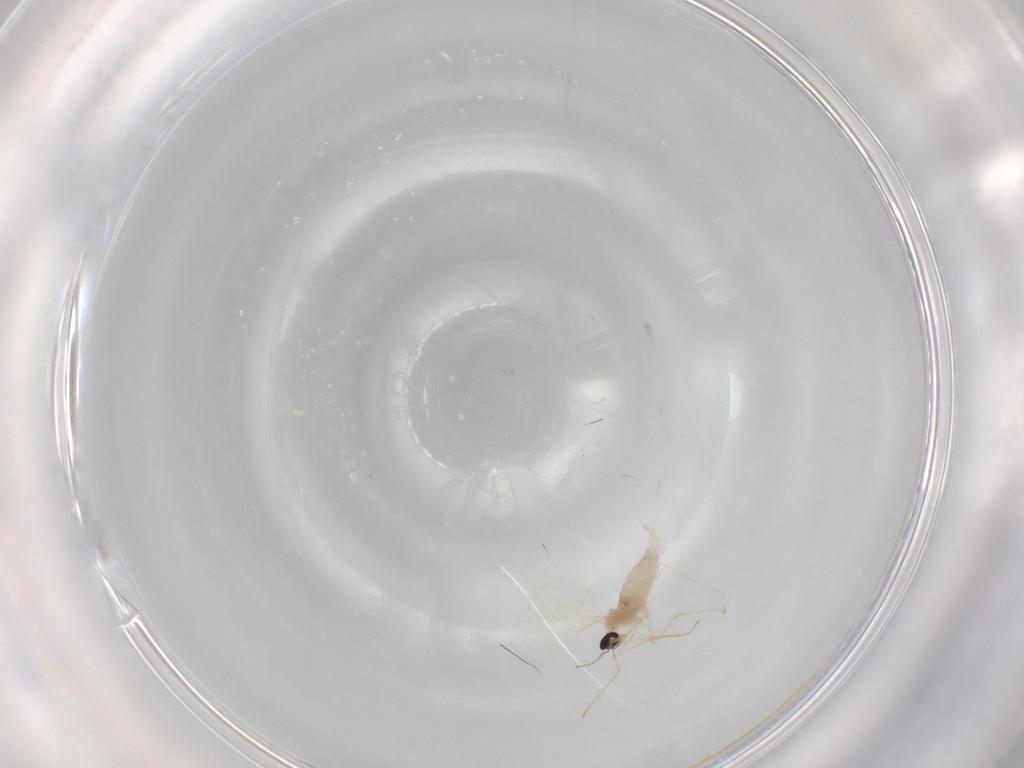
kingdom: Animalia
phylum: Arthropoda
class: Insecta
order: Diptera
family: Cecidomyiidae
